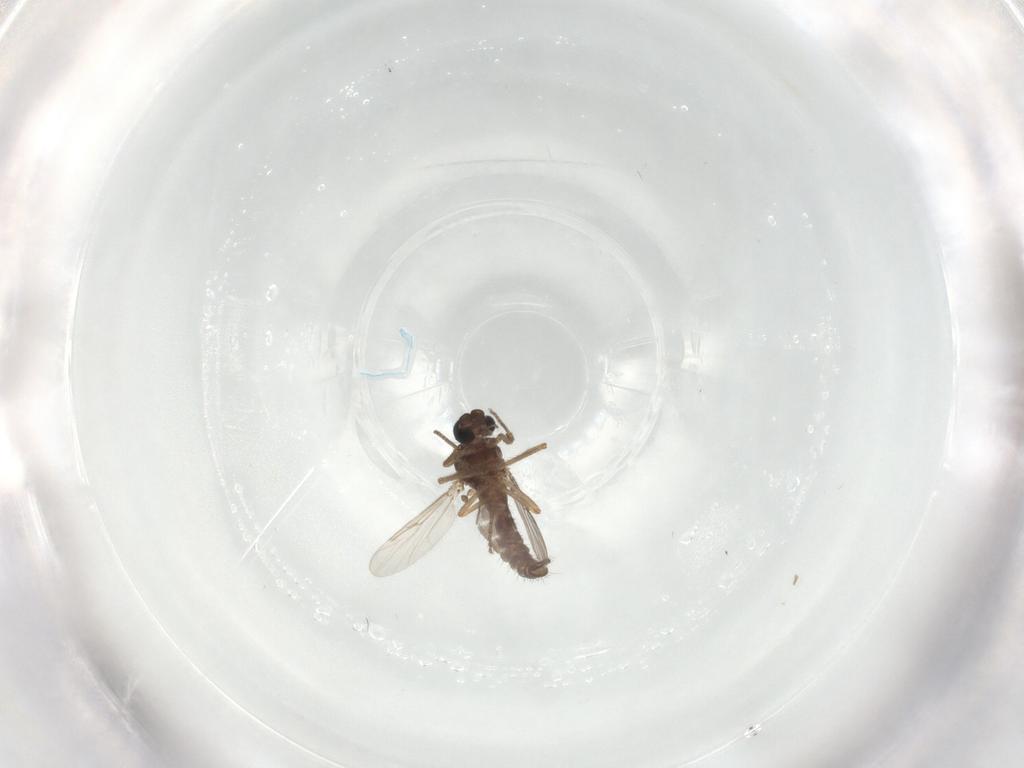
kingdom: Animalia
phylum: Arthropoda
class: Insecta
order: Diptera
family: Ceratopogonidae
